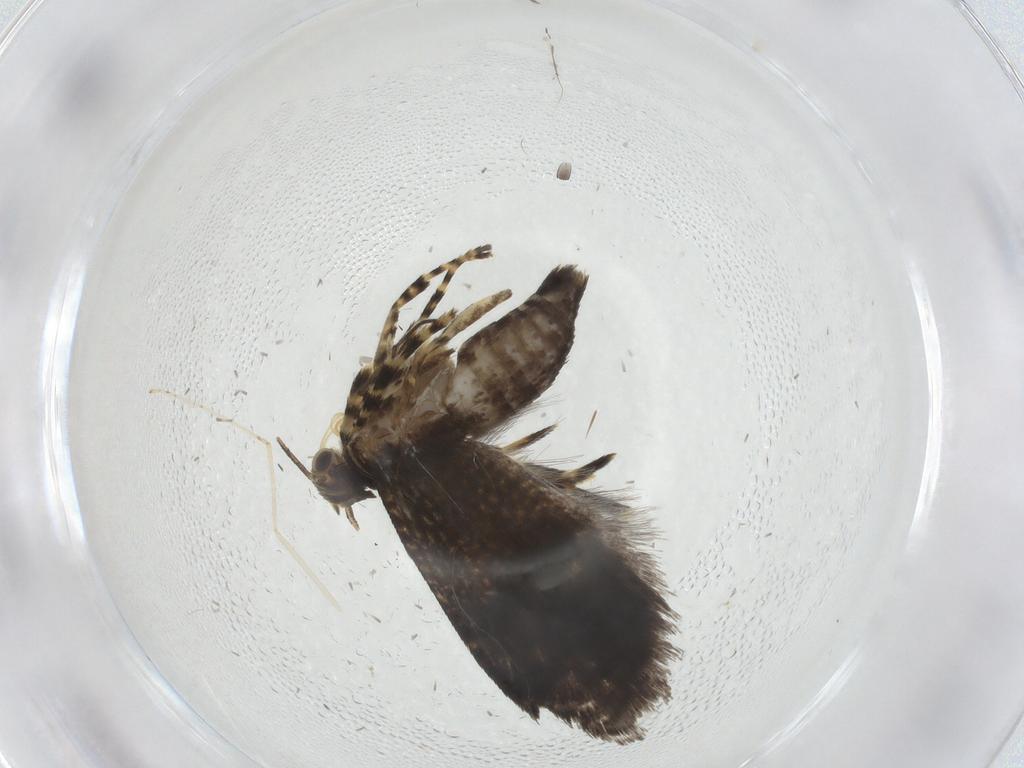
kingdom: Animalia
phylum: Arthropoda
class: Insecta
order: Lepidoptera
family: Geometridae
